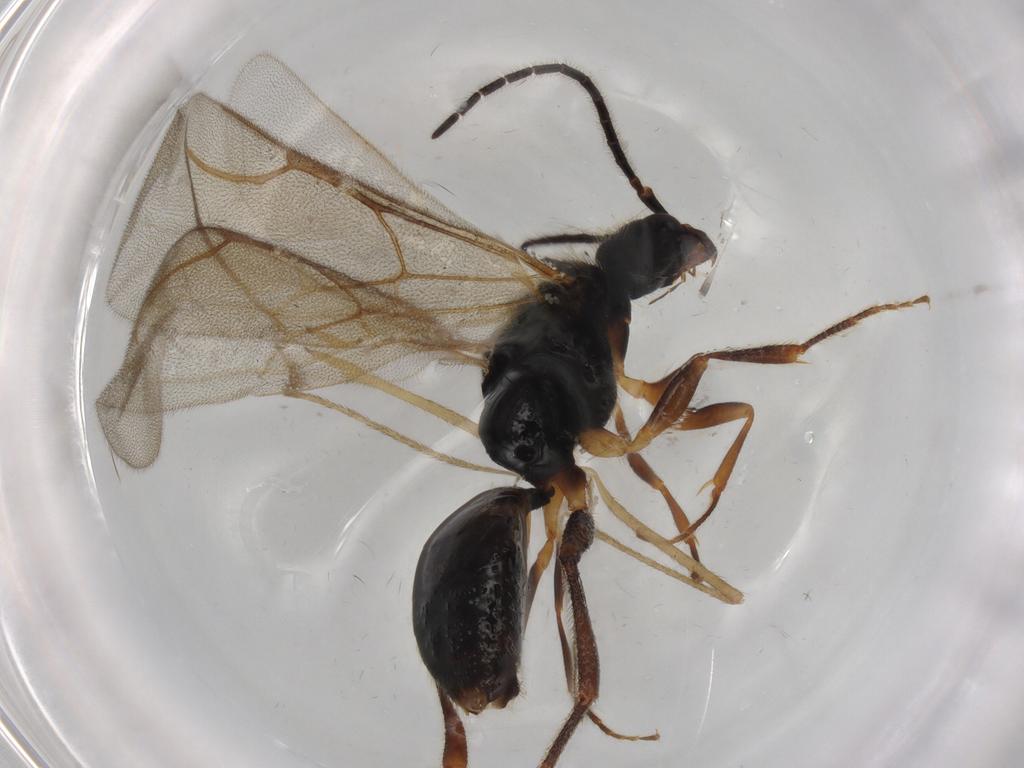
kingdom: Animalia
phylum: Arthropoda
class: Insecta
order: Hymenoptera
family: Bethylidae
